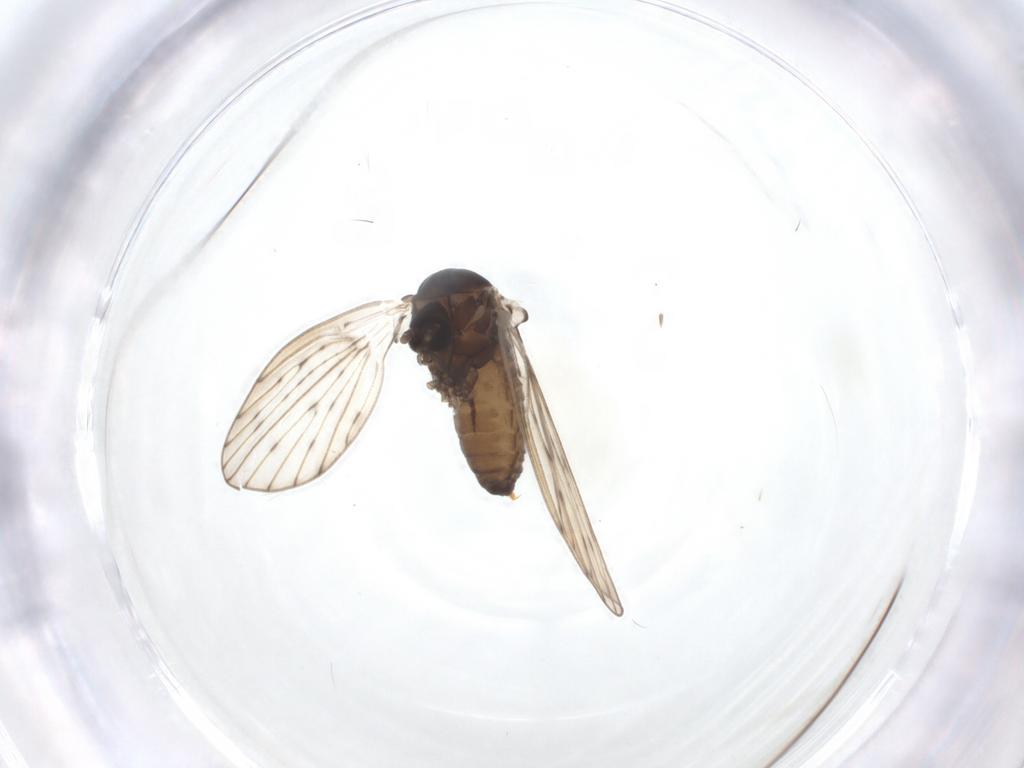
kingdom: Animalia
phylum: Arthropoda
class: Insecta
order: Diptera
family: Psychodidae
